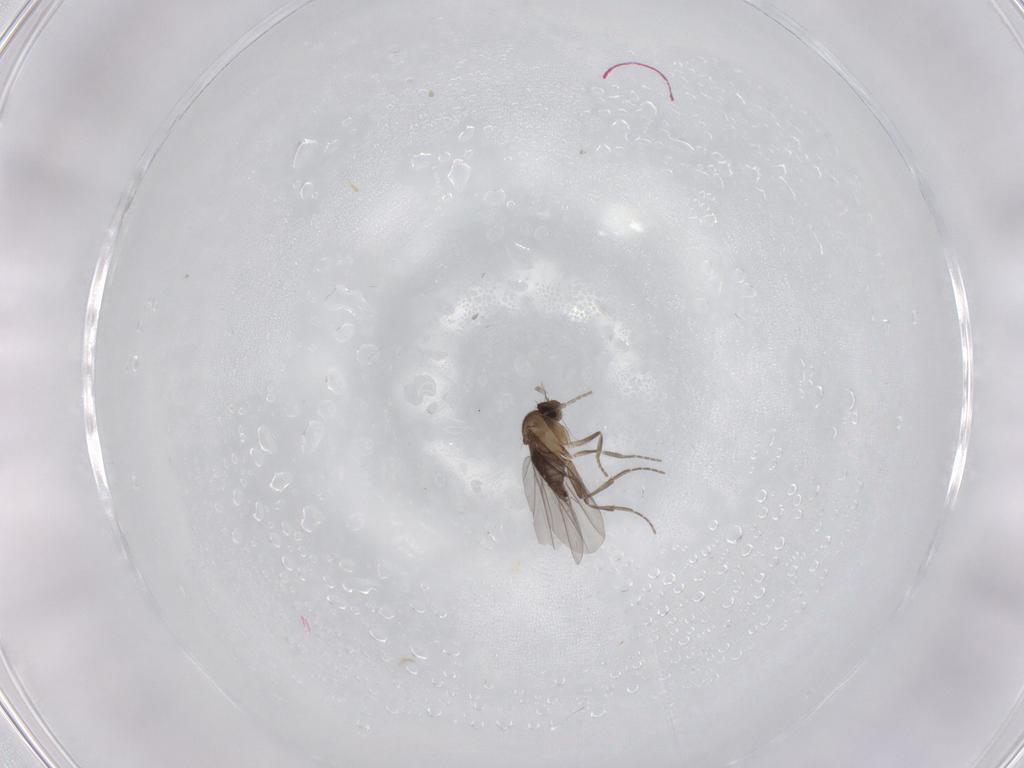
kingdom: Animalia
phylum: Arthropoda
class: Insecta
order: Diptera
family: Phoridae
